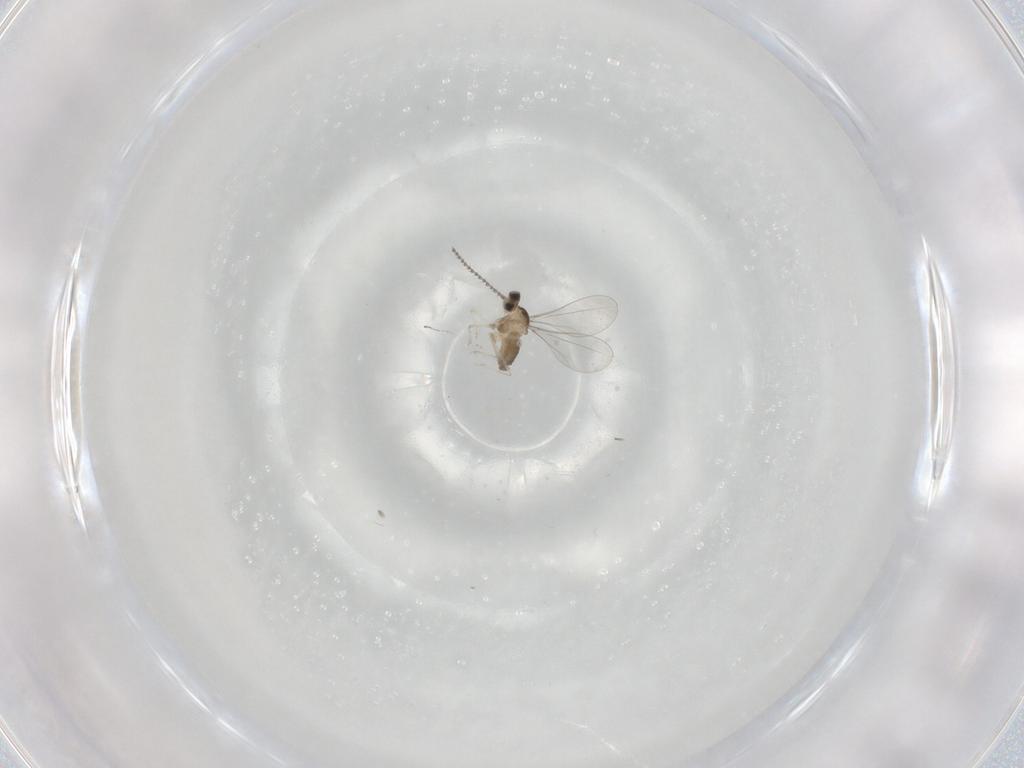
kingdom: Animalia
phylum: Arthropoda
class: Insecta
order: Diptera
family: Cecidomyiidae
